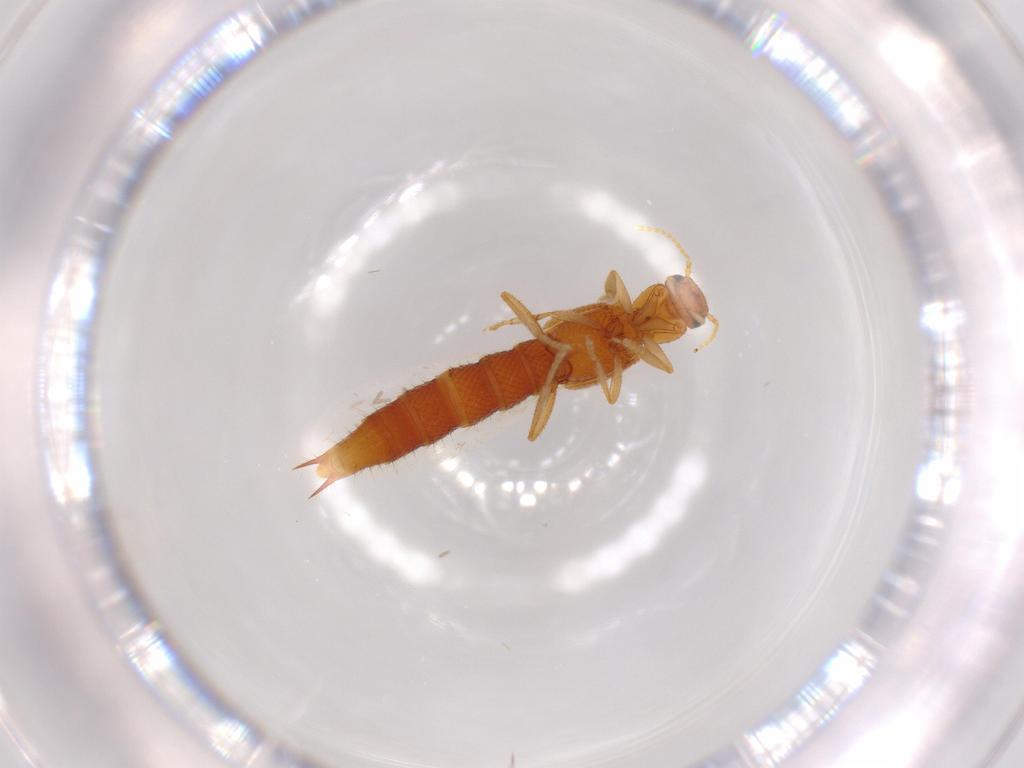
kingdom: Animalia
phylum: Arthropoda
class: Insecta
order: Coleoptera
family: Staphylinidae
